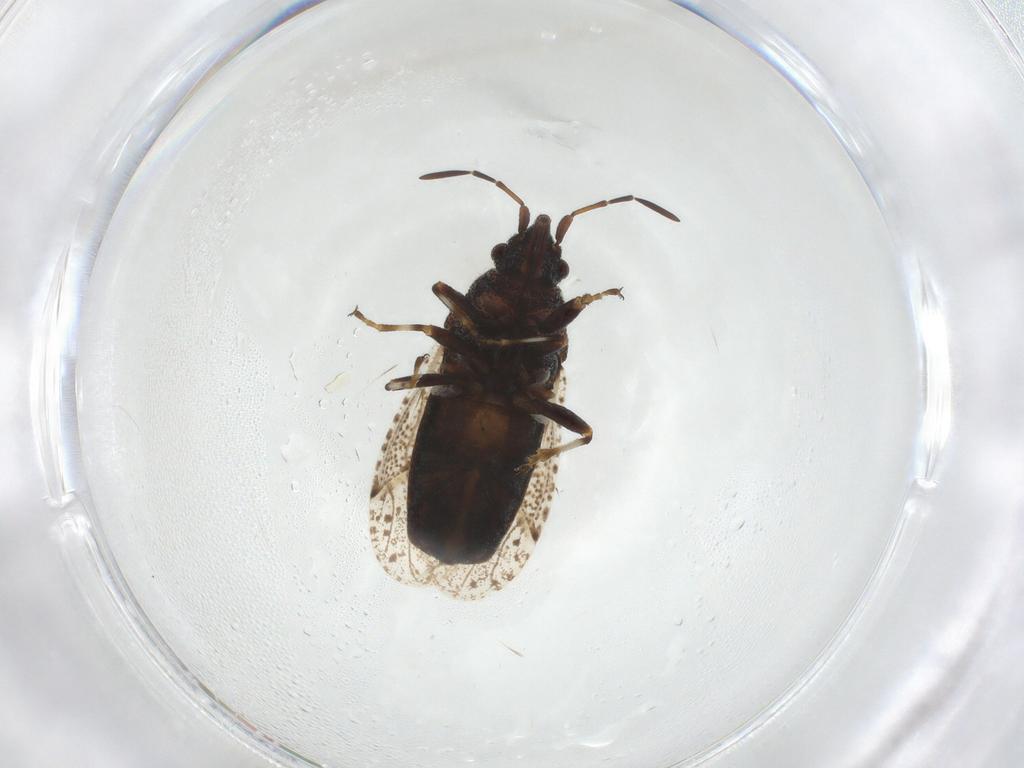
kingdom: Animalia
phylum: Arthropoda
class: Insecta
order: Hemiptera
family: Oxycarenidae
